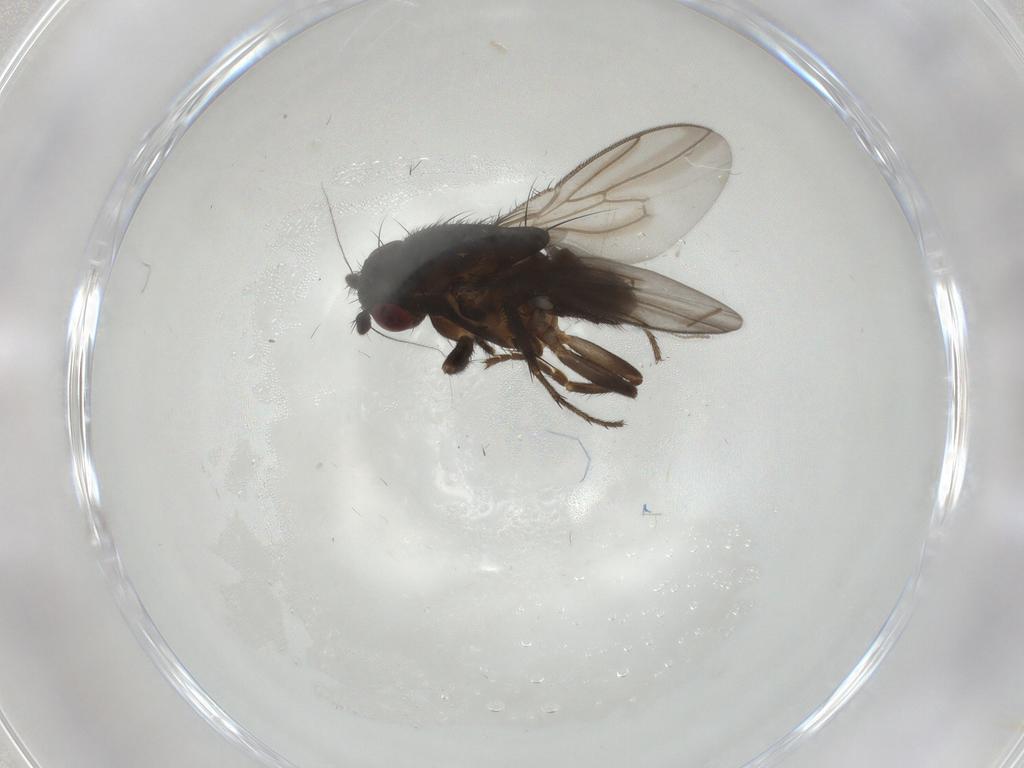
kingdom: Animalia
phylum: Arthropoda
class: Insecta
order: Diptera
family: Sphaeroceridae
